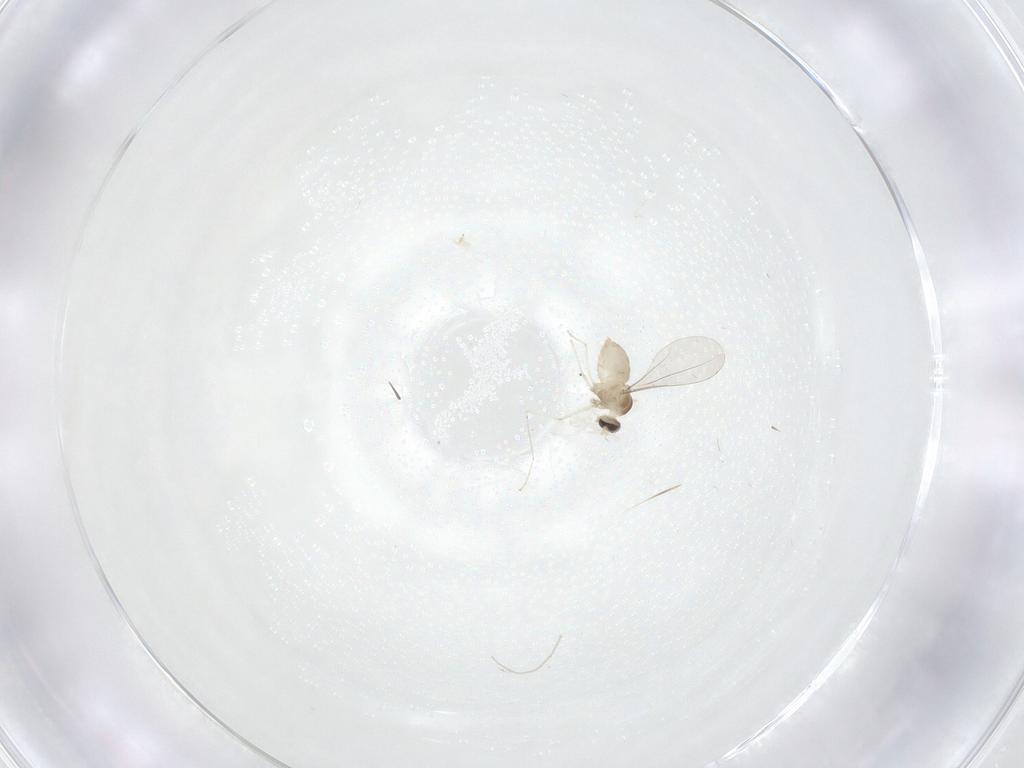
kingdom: Animalia
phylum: Arthropoda
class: Insecta
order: Diptera
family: Cecidomyiidae
